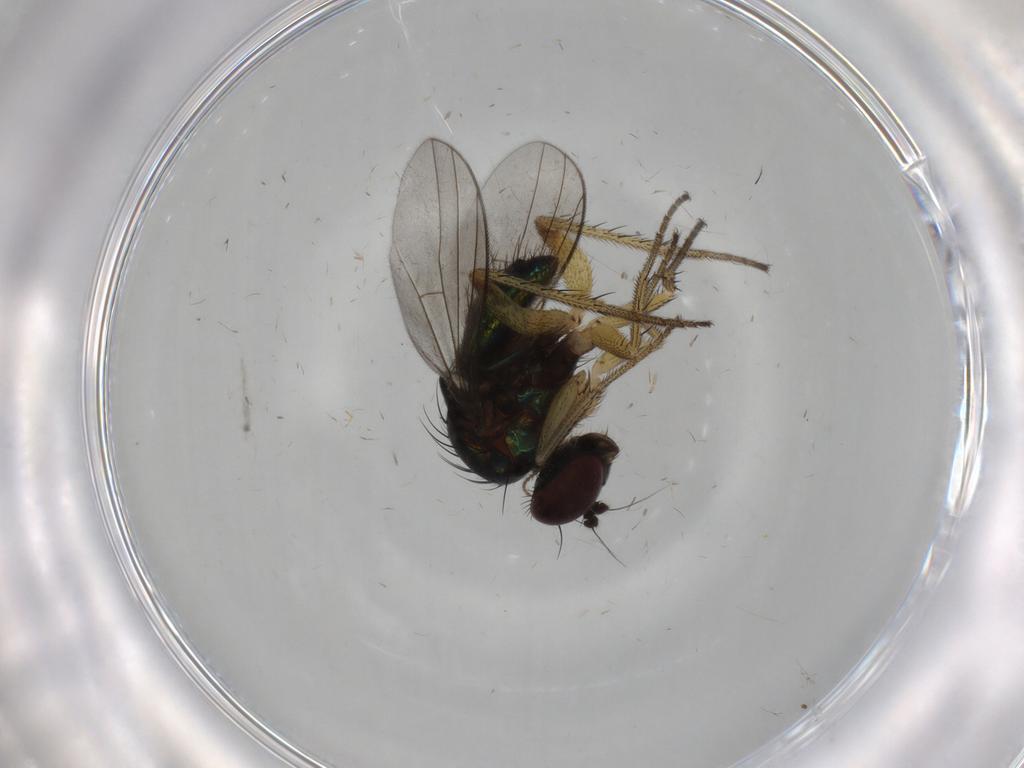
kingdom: Animalia
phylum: Arthropoda
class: Insecta
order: Diptera
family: Dolichopodidae
